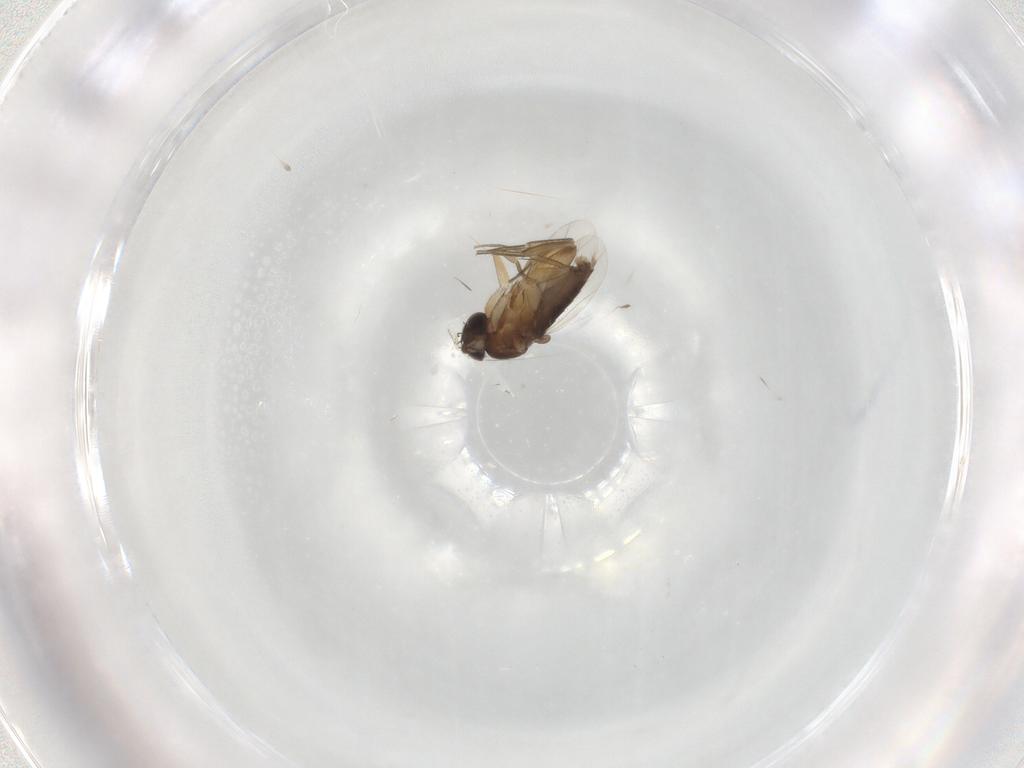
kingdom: Animalia
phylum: Arthropoda
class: Insecta
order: Diptera
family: Phoridae
